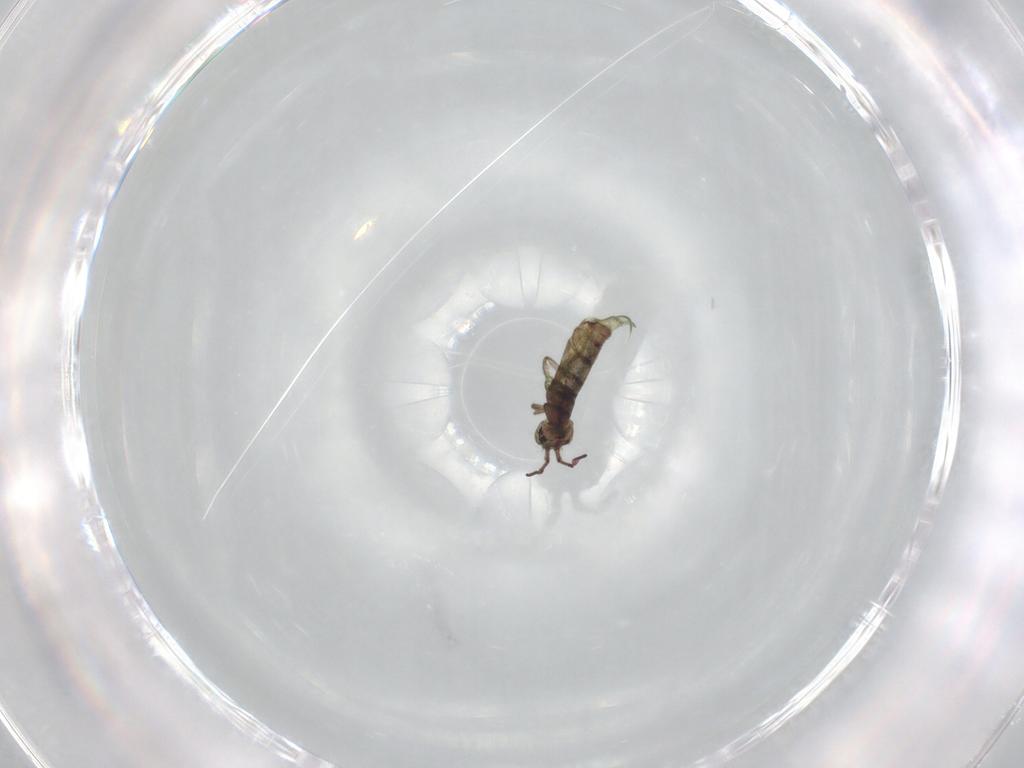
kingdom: Animalia
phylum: Arthropoda
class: Collembola
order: Entomobryomorpha
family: Isotomidae
